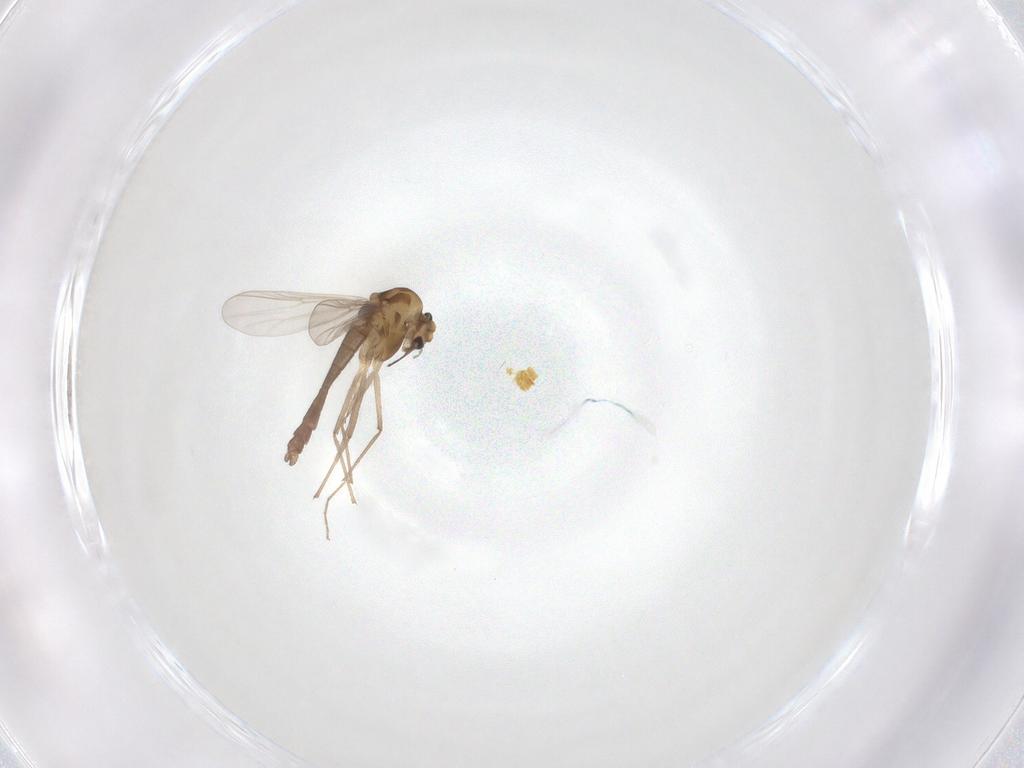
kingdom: Animalia
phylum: Arthropoda
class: Insecta
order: Diptera
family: Chironomidae
